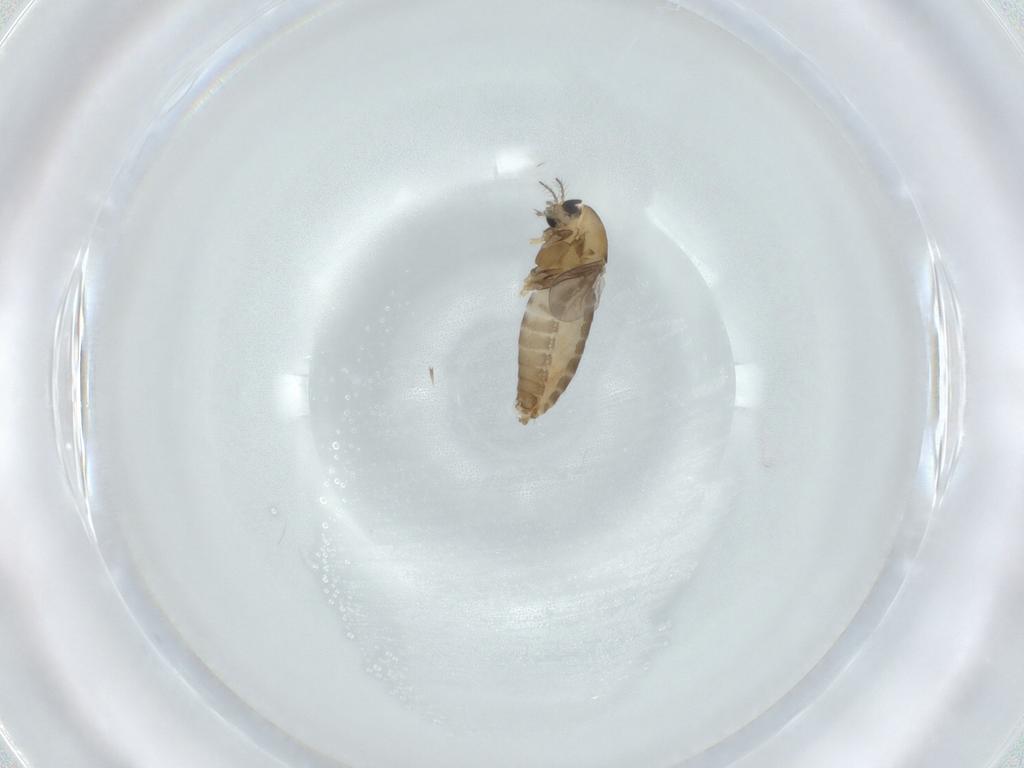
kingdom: Animalia
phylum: Arthropoda
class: Insecta
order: Diptera
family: Chironomidae
